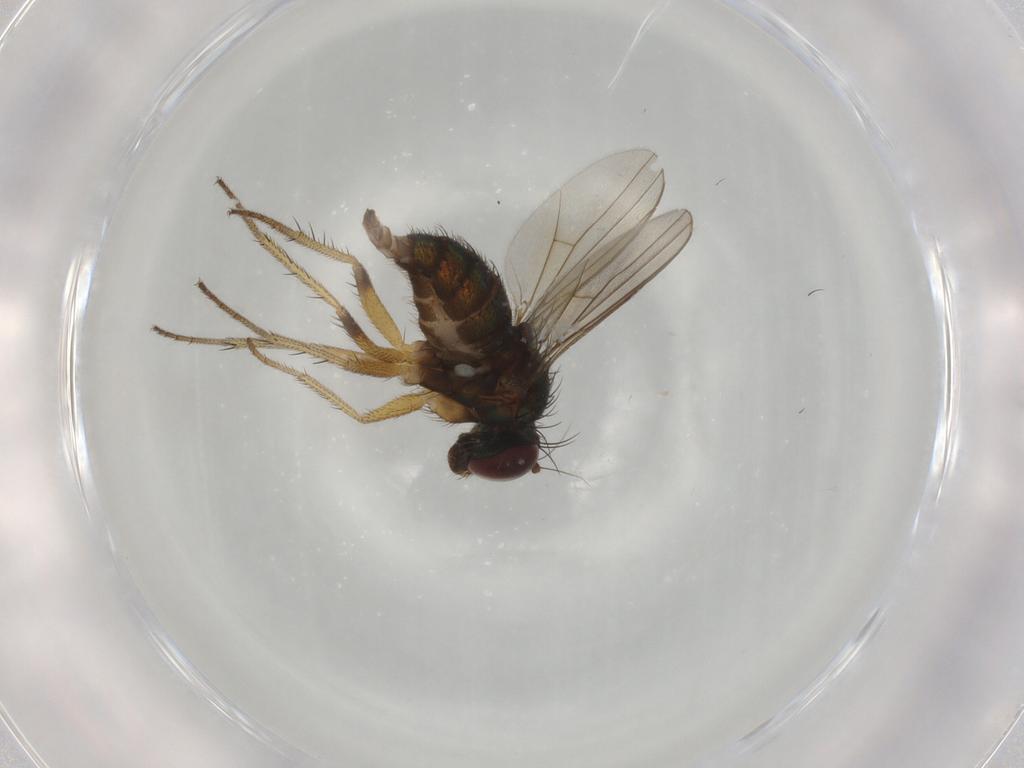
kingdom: Animalia
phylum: Arthropoda
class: Insecta
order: Diptera
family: Dolichopodidae
